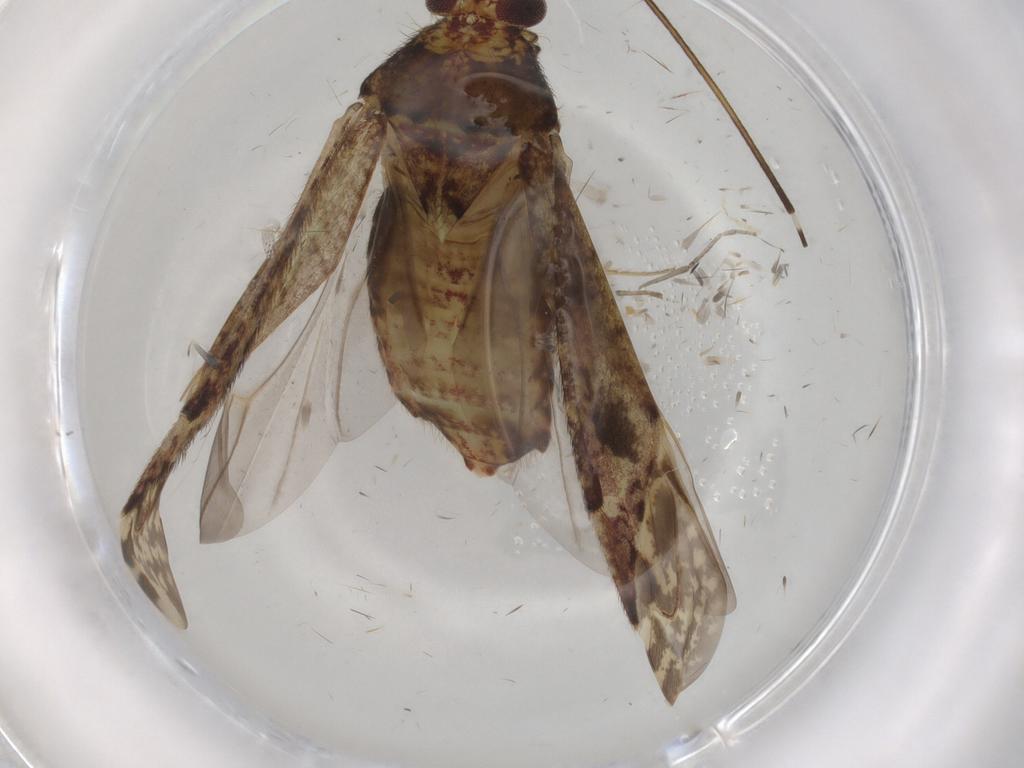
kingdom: Animalia
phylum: Arthropoda
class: Insecta
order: Hemiptera
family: Miridae
